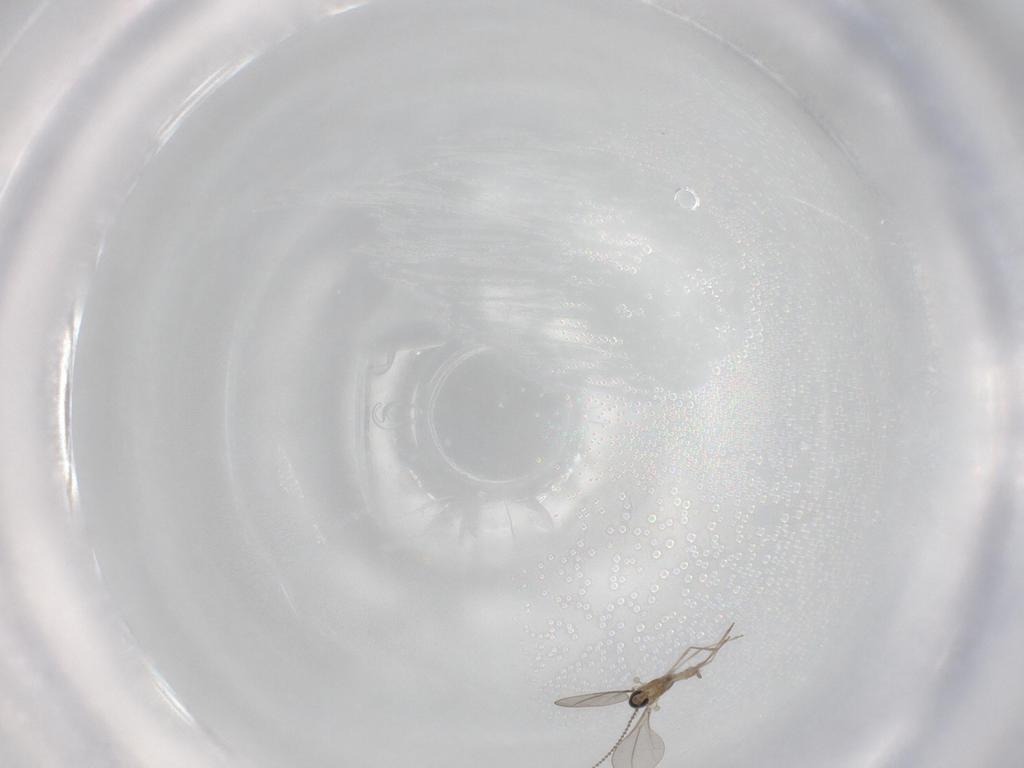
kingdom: Animalia
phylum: Arthropoda
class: Insecta
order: Diptera
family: Cecidomyiidae
